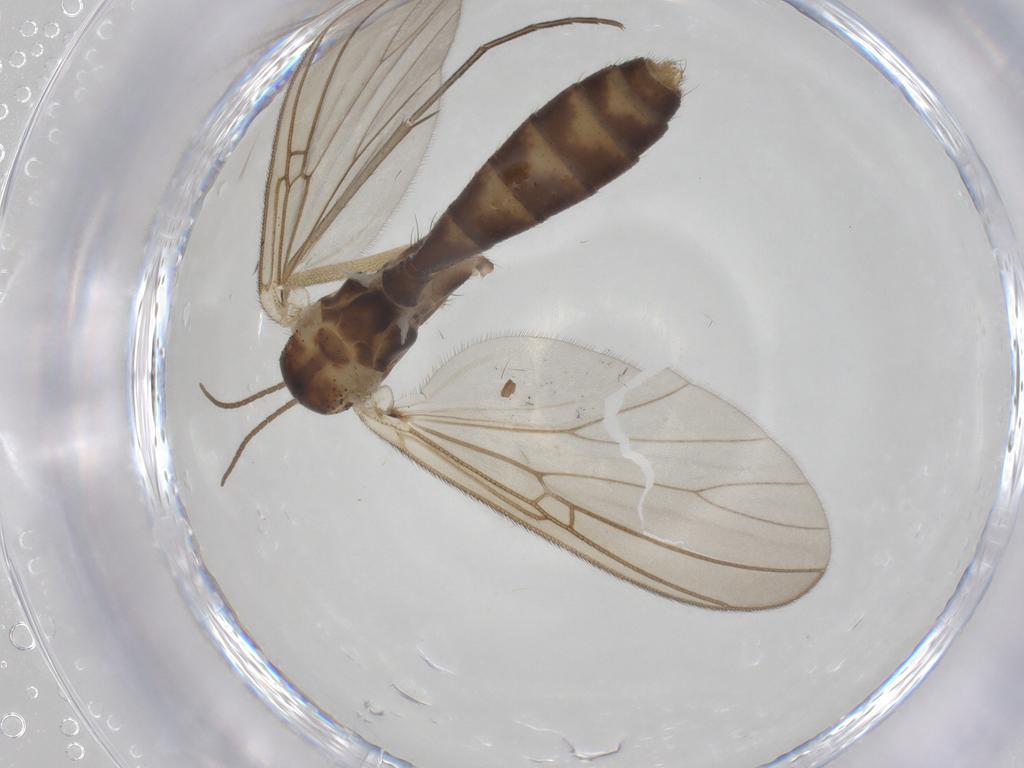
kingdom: Animalia
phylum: Arthropoda
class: Insecta
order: Diptera
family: Mycetophilidae
